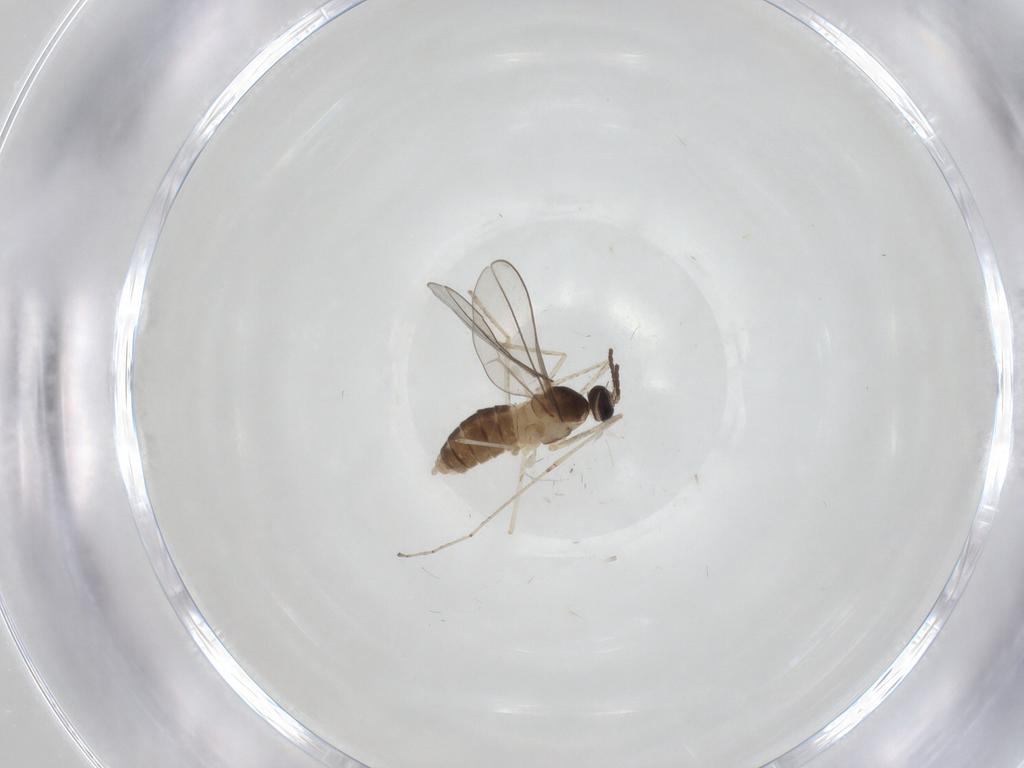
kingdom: Animalia
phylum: Arthropoda
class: Insecta
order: Diptera
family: Cecidomyiidae
